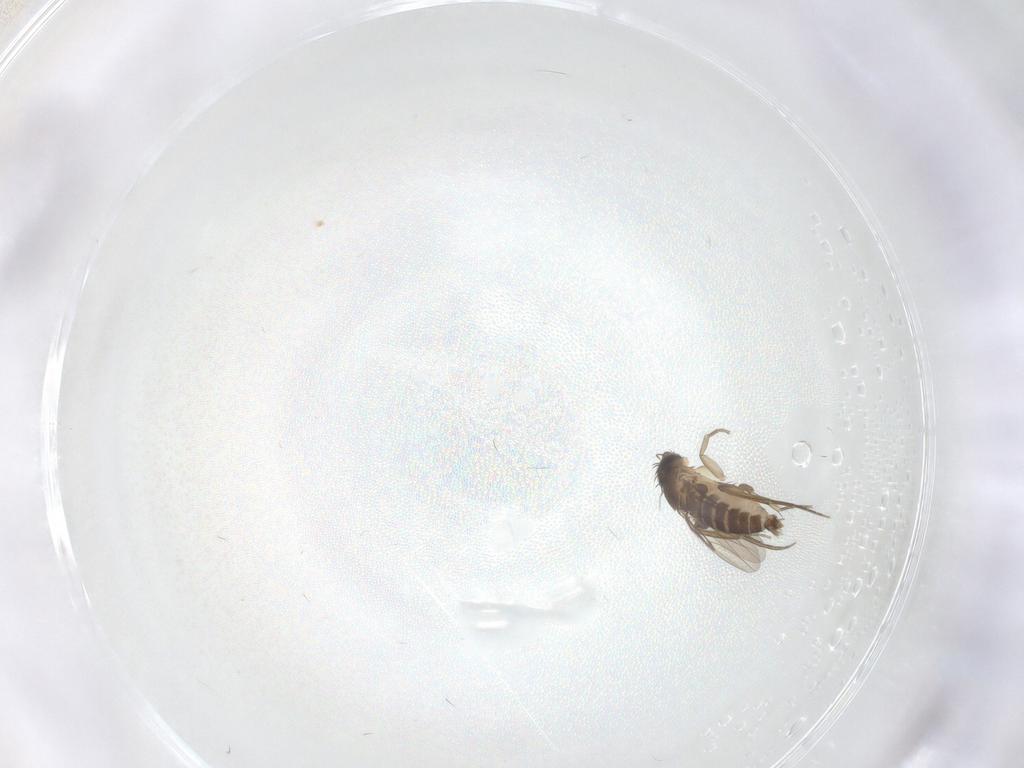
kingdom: Animalia
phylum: Arthropoda
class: Insecta
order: Diptera
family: Phoridae
